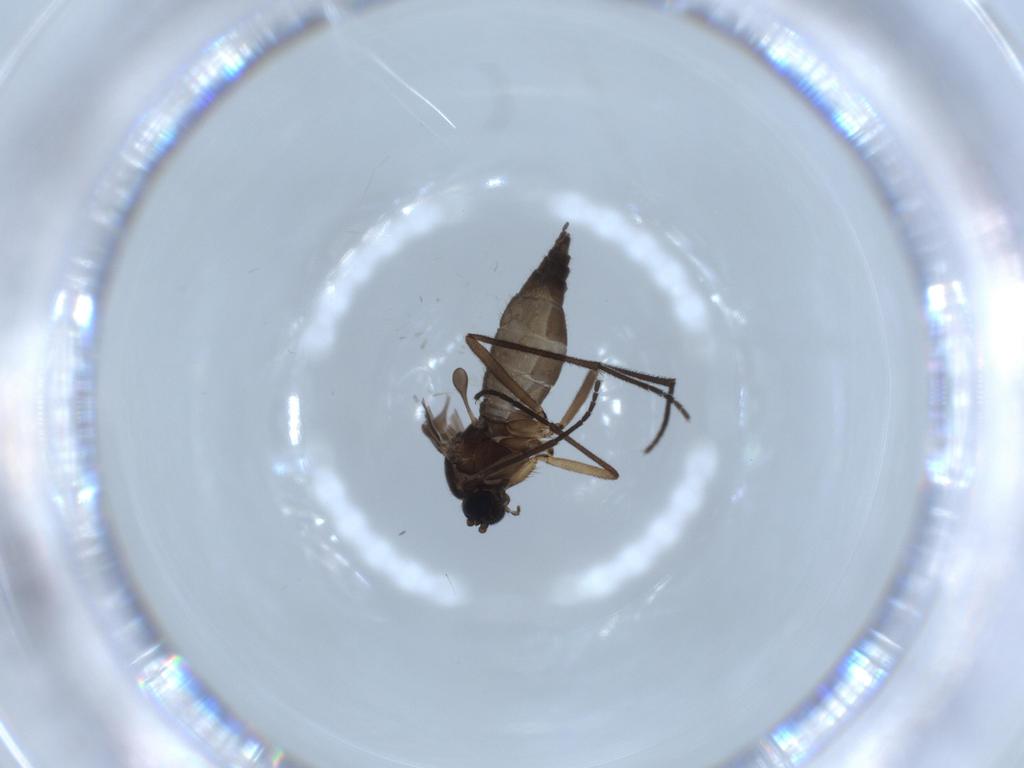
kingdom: Animalia
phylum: Arthropoda
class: Insecta
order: Diptera
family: Sciaridae
